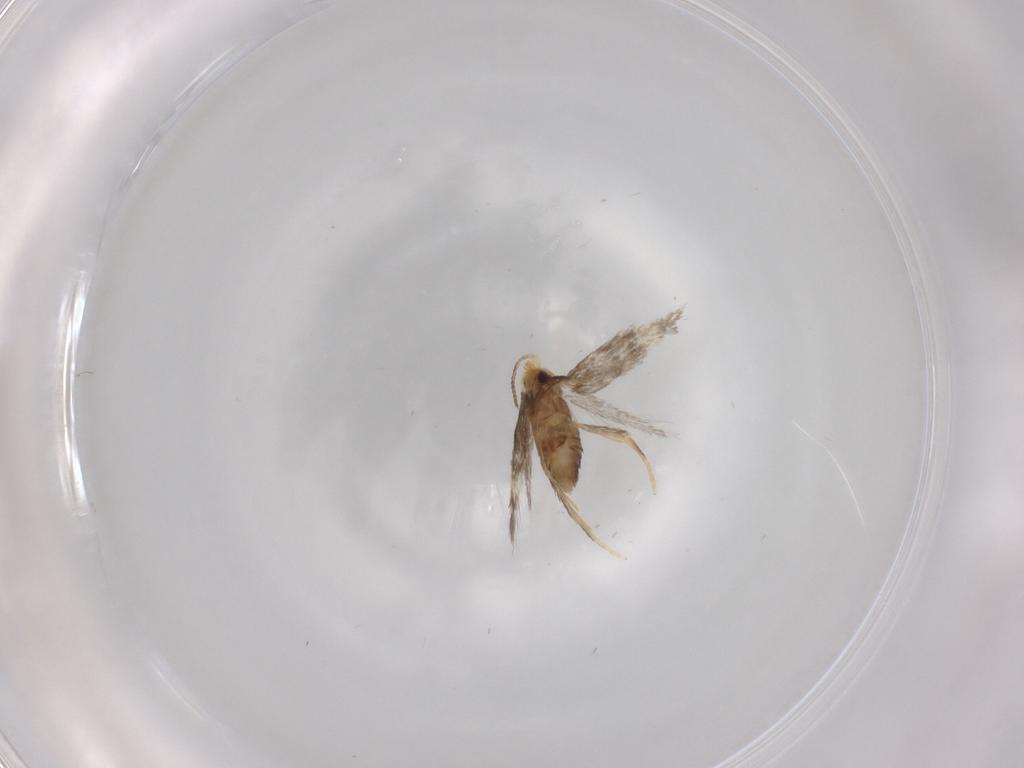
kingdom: Animalia
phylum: Arthropoda
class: Insecta
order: Lepidoptera
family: Nepticulidae
